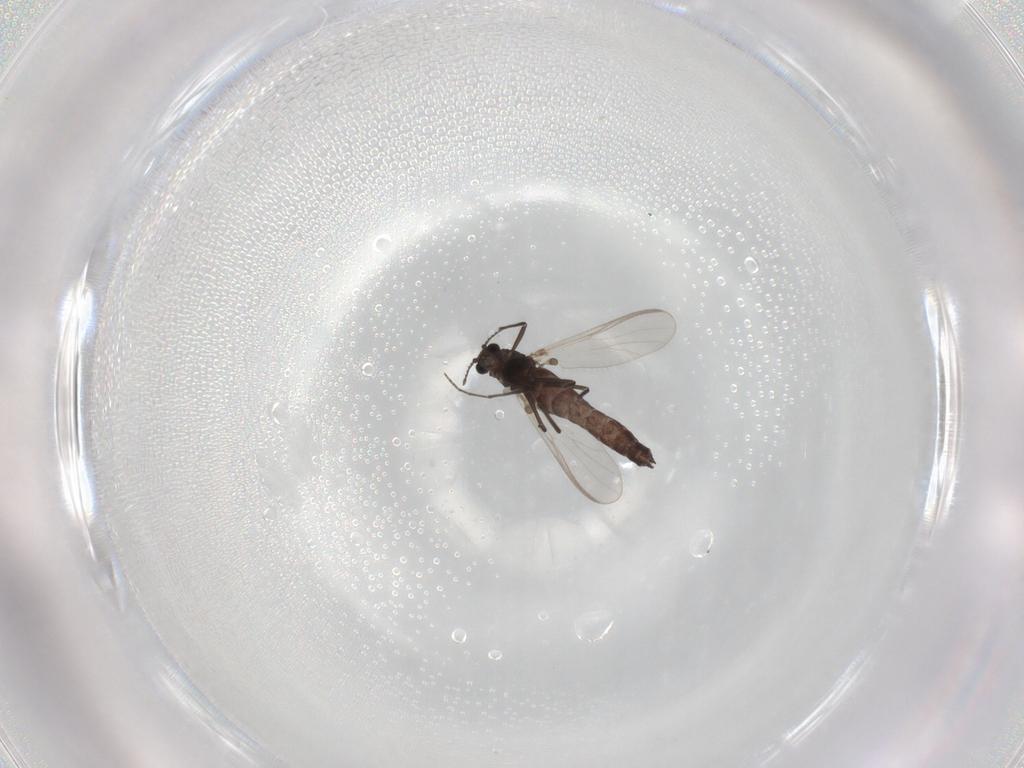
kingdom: Animalia
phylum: Arthropoda
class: Insecta
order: Diptera
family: Chironomidae
